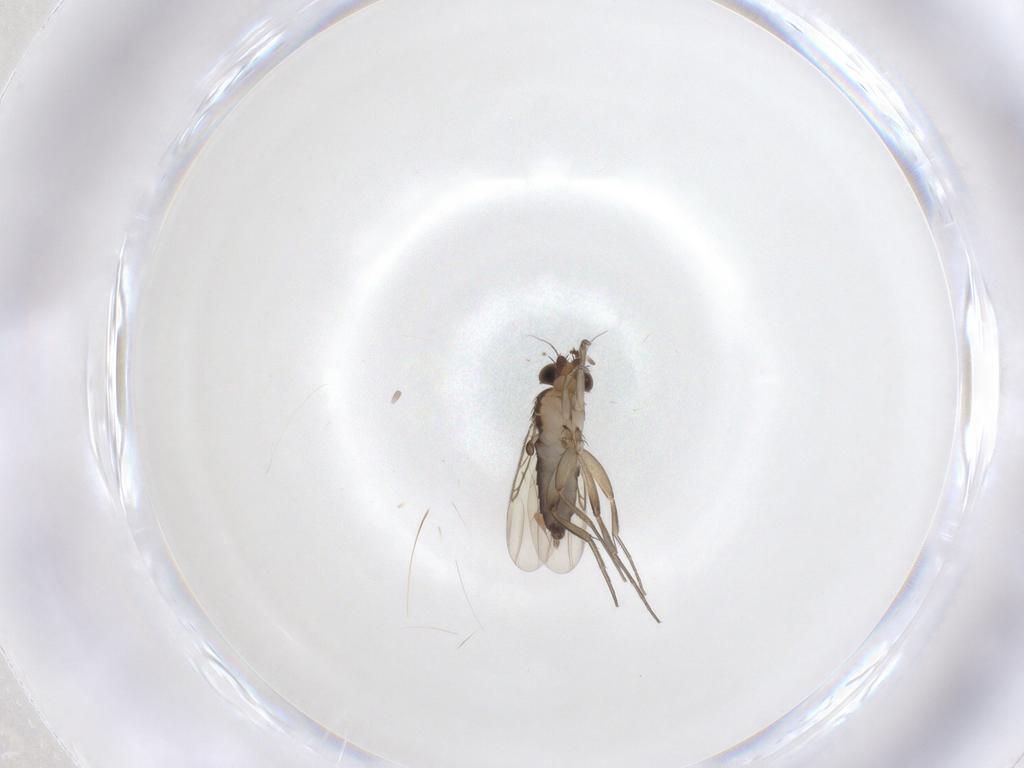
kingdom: Animalia
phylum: Arthropoda
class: Insecta
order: Diptera
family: Phoridae
